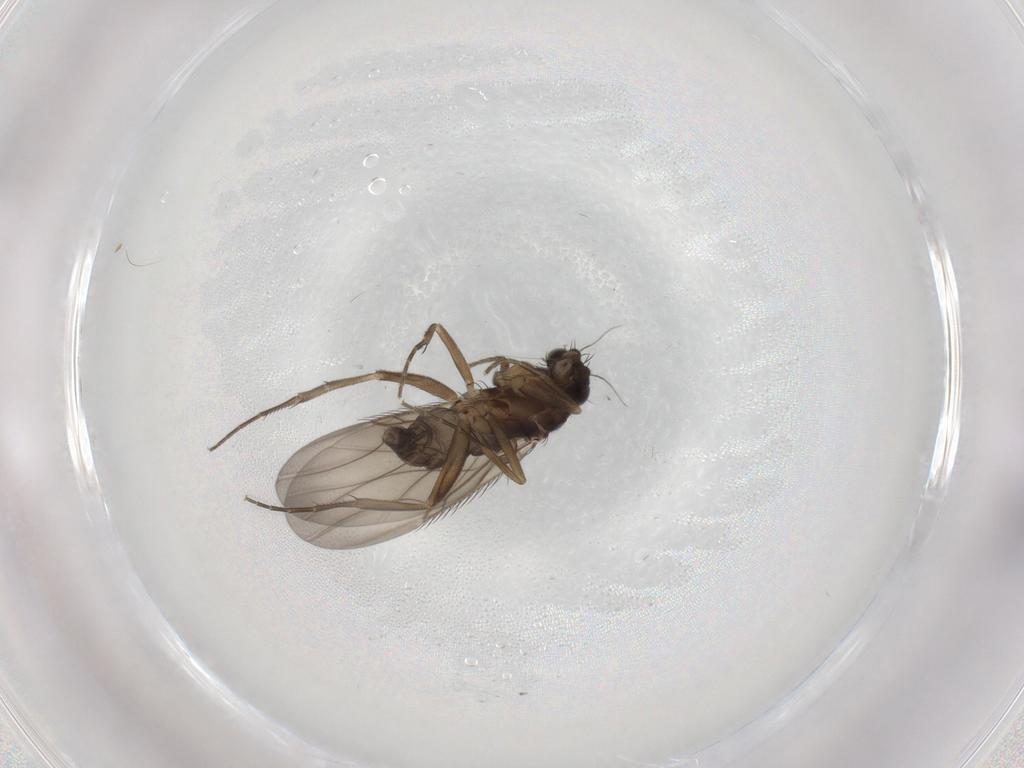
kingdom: Animalia
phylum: Arthropoda
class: Insecta
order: Diptera
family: Phoridae
